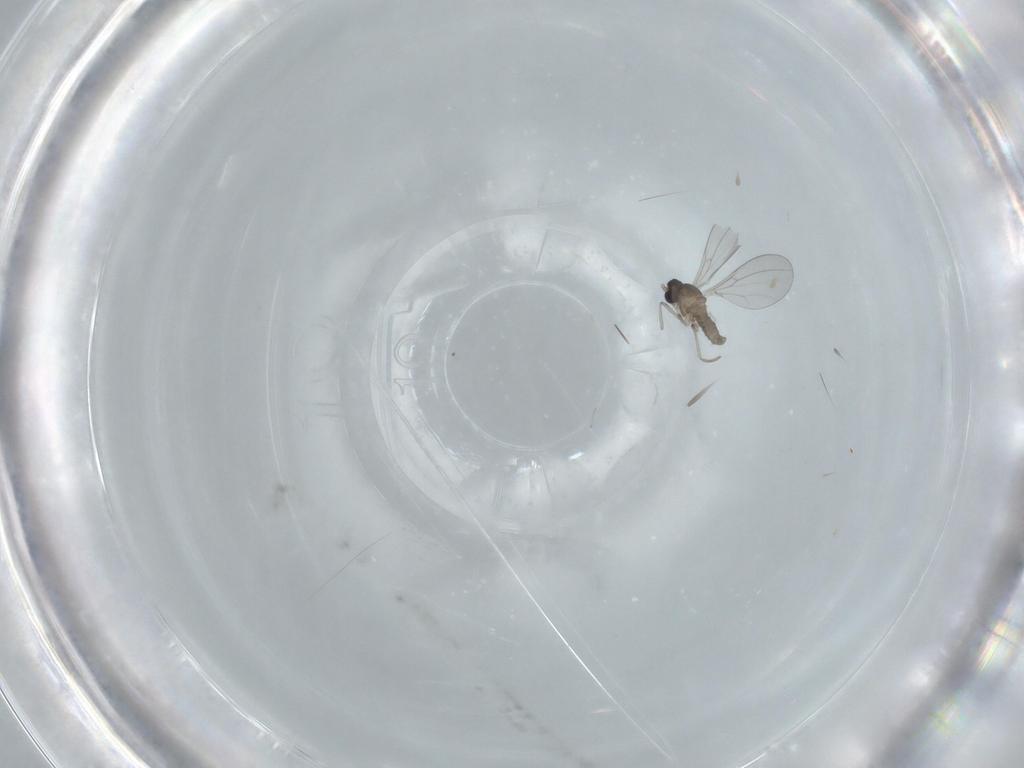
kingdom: Animalia
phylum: Arthropoda
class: Insecta
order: Diptera
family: Cecidomyiidae
